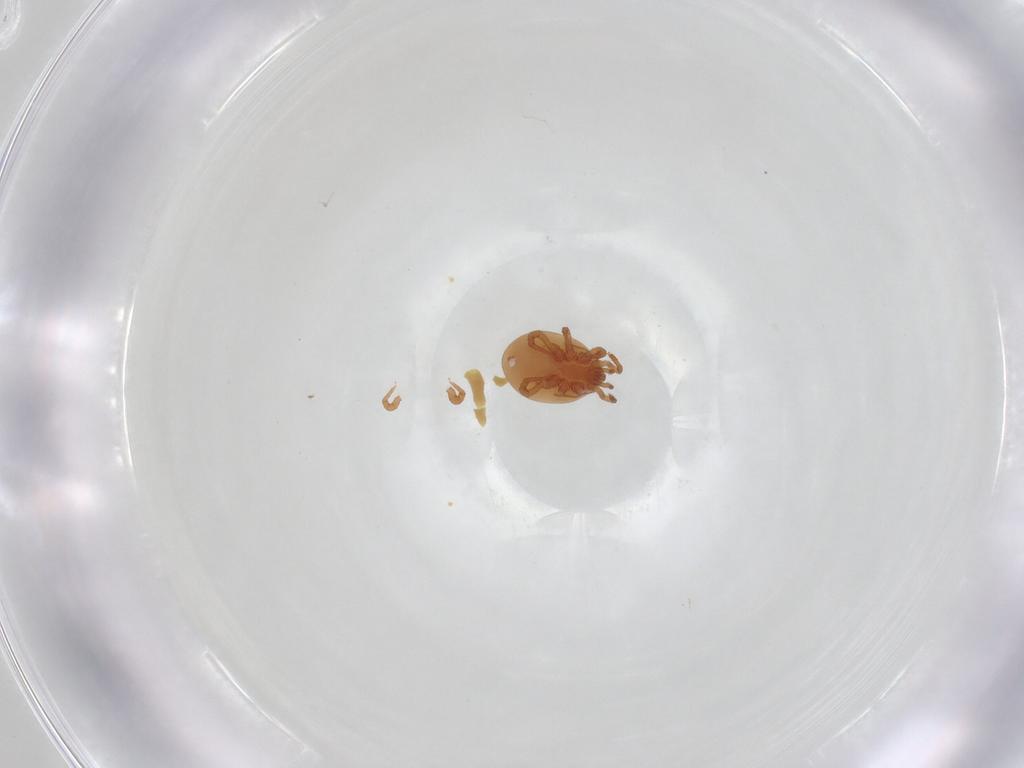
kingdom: Animalia
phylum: Arthropoda
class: Arachnida
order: Mesostigmata
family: Parasitidae
